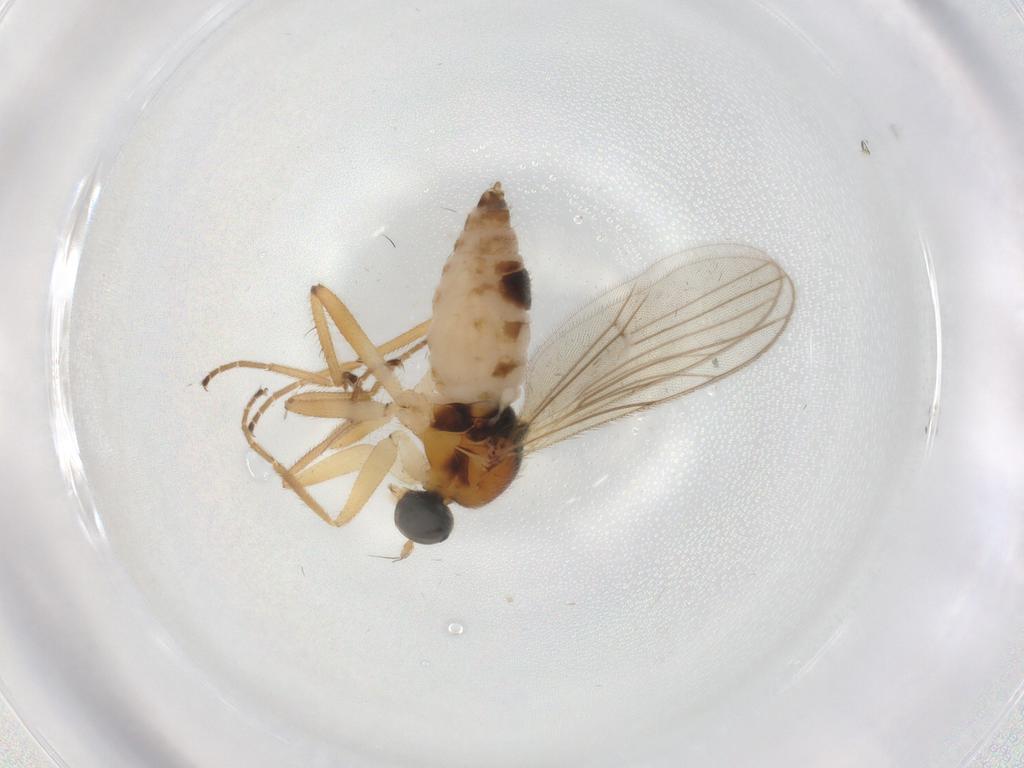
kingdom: Animalia
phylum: Arthropoda
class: Insecta
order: Diptera
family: Hybotidae
